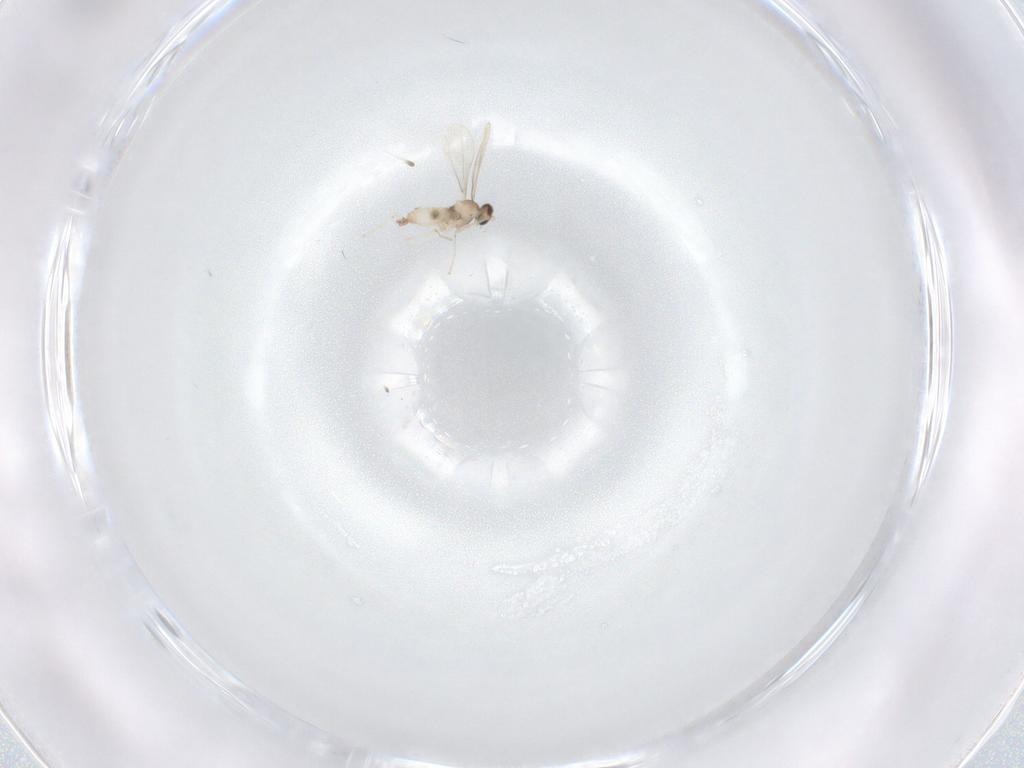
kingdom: Animalia
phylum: Arthropoda
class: Insecta
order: Diptera
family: Cecidomyiidae
